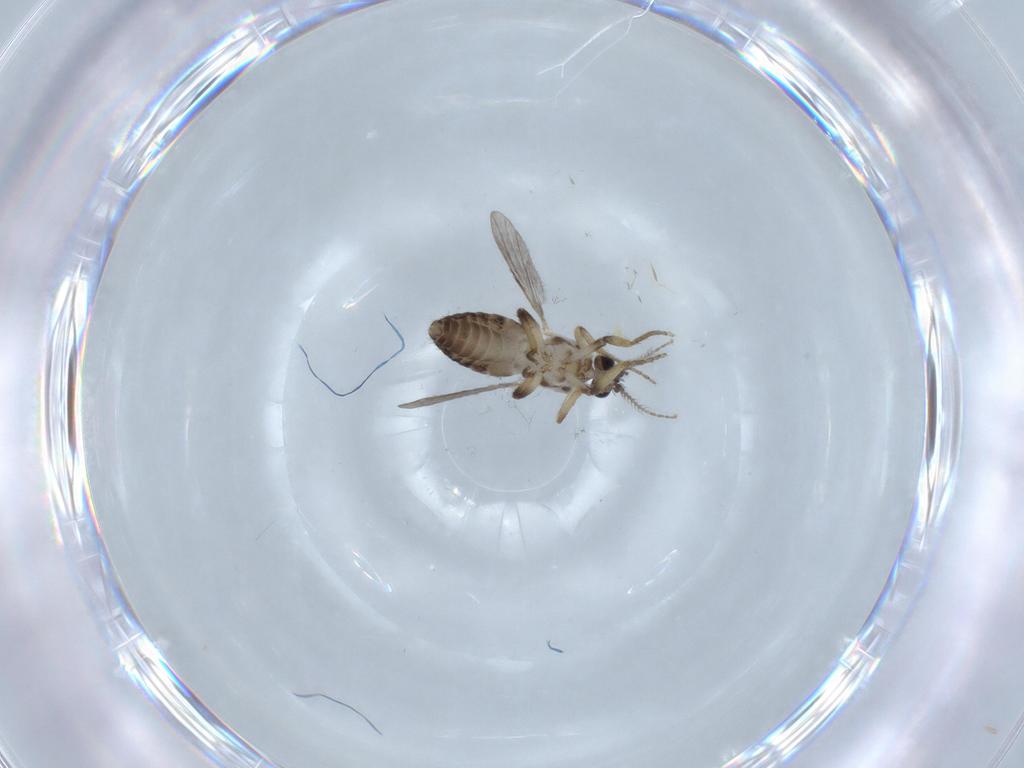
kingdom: Animalia
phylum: Arthropoda
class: Insecta
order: Diptera
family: Ceratopogonidae
